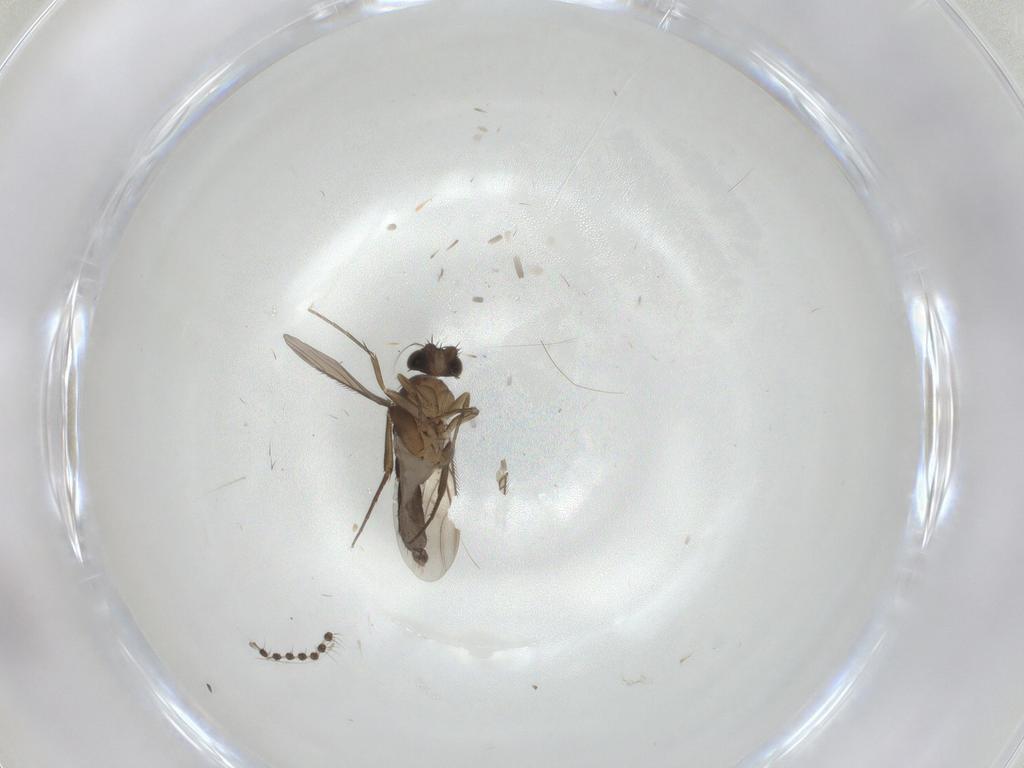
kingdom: Animalia
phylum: Arthropoda
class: Insecta
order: Diptera
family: Phoridae
